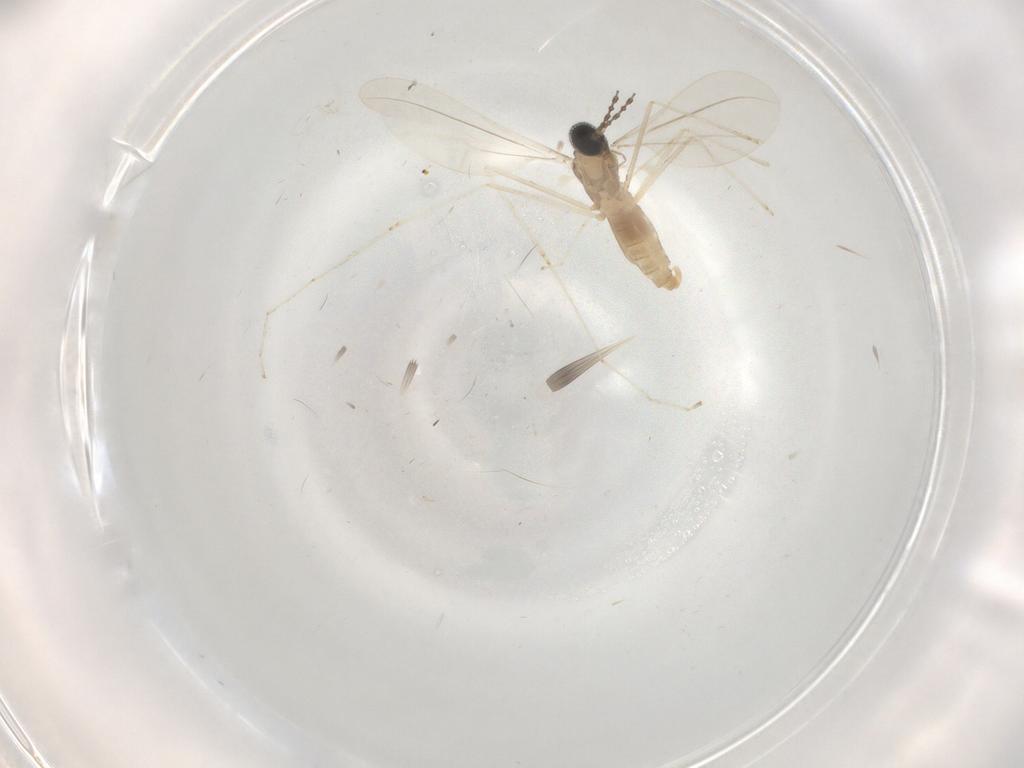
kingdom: Animalia
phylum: Arthropoda
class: Insecta
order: Diptera
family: Cecidomyiidae
